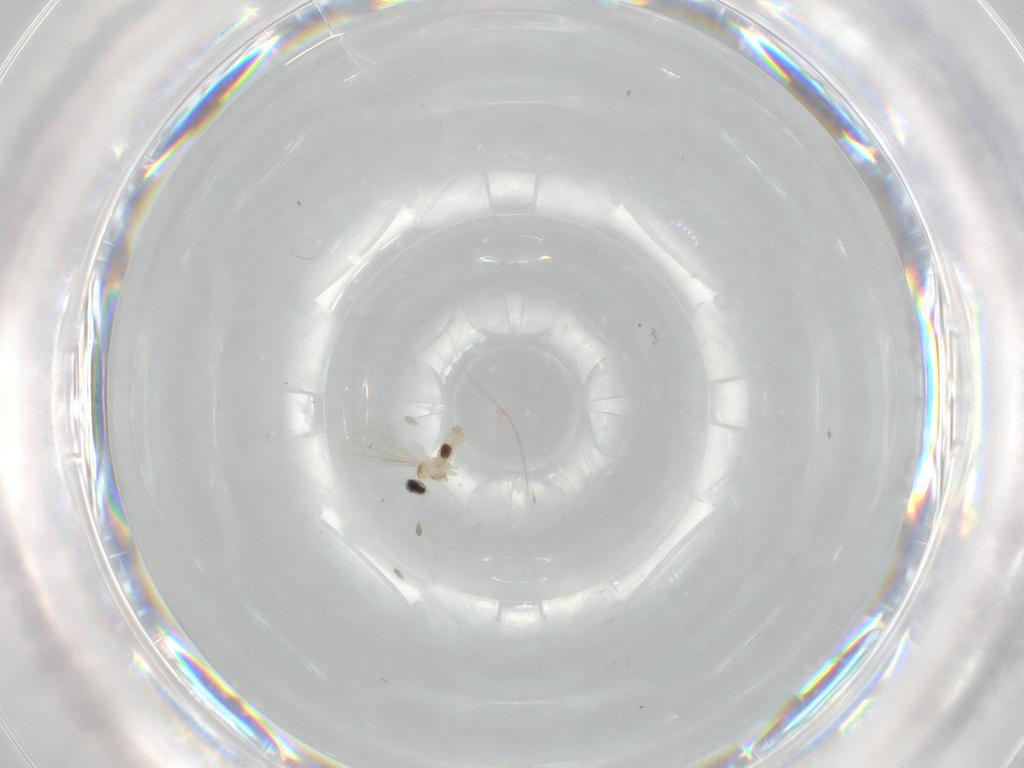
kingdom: Animalia
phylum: Arthropoda
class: Insecta
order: Diptera
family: Cecidomyiidae
